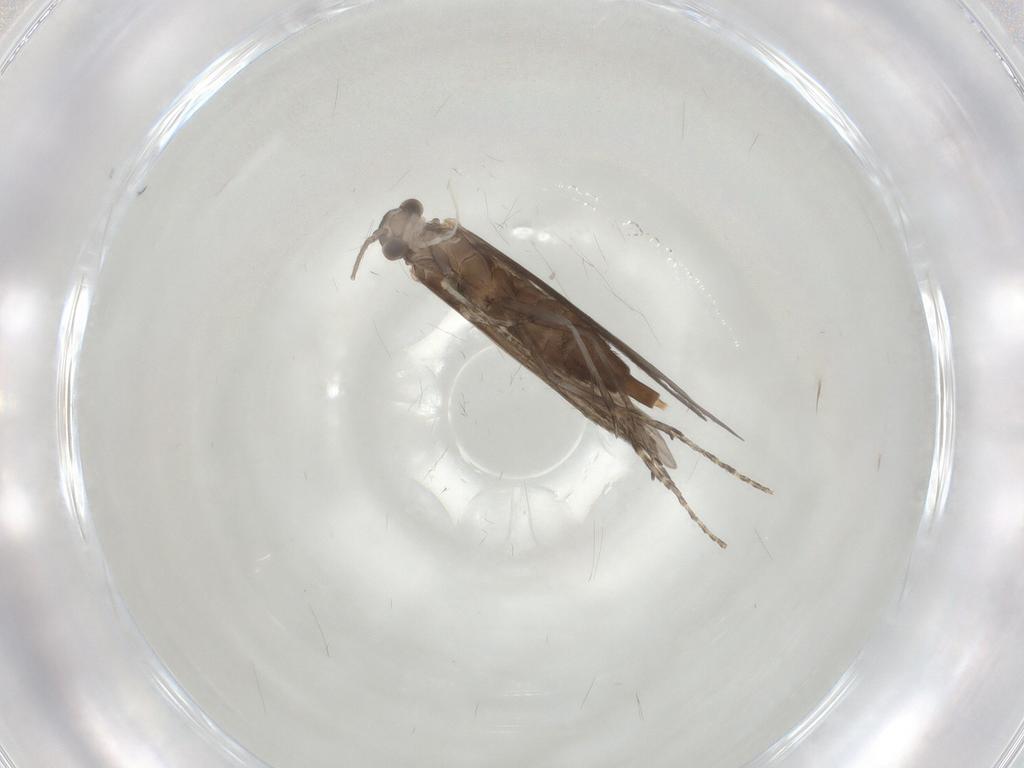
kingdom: Animalia
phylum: Arthropoda
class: Insecta
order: Trichoptera
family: Xiphocentronidae
